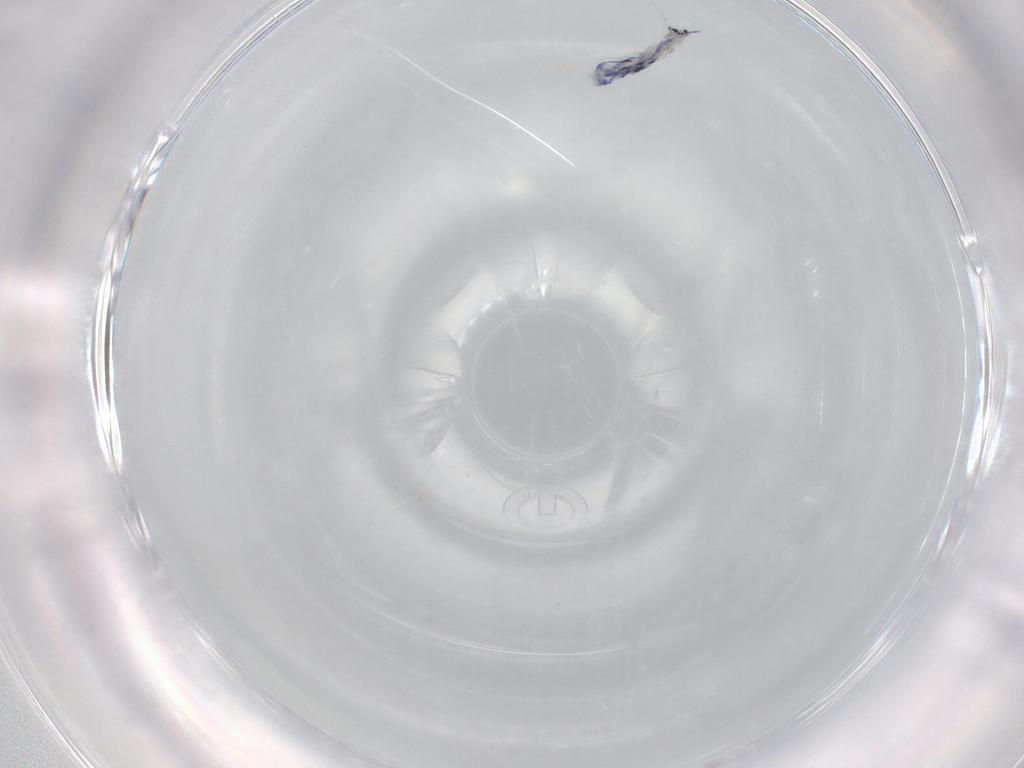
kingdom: Animalia
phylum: Arthropoda
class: Collembola
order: Entomobryomorpha
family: Entomobryidae
